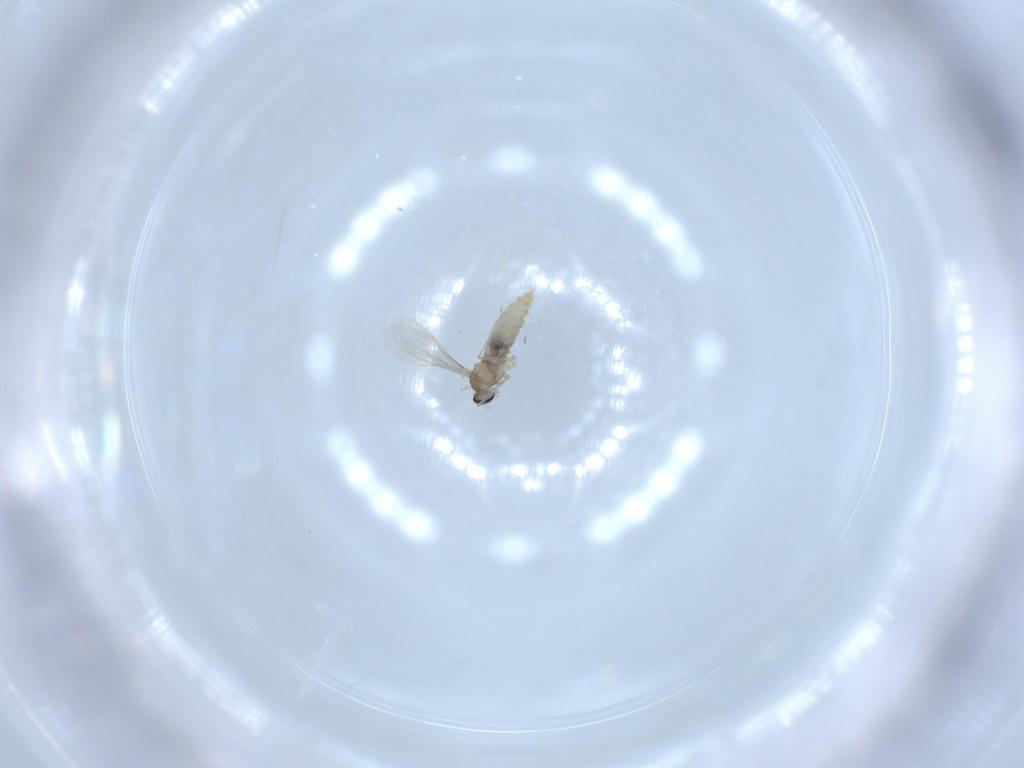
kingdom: Animalia
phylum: Arthropoda
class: Insecta
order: Diptera
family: Cecidomyiidae
